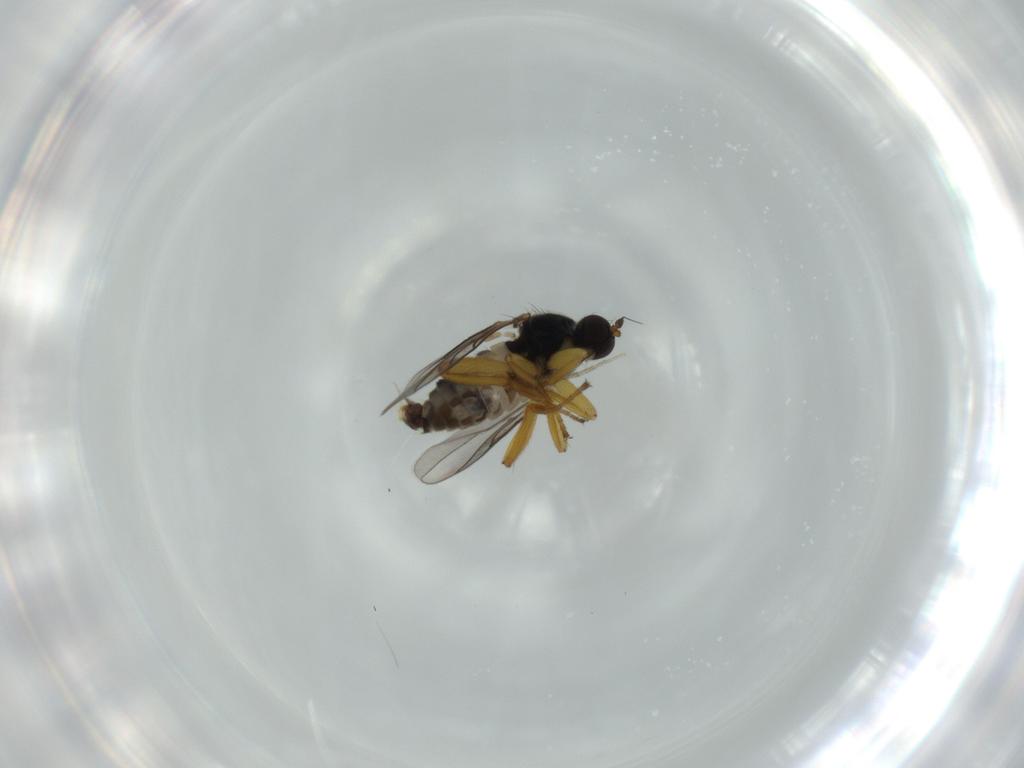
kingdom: Animalia
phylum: Arthropoda
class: Insecta
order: Diptera
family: Hybotidae
